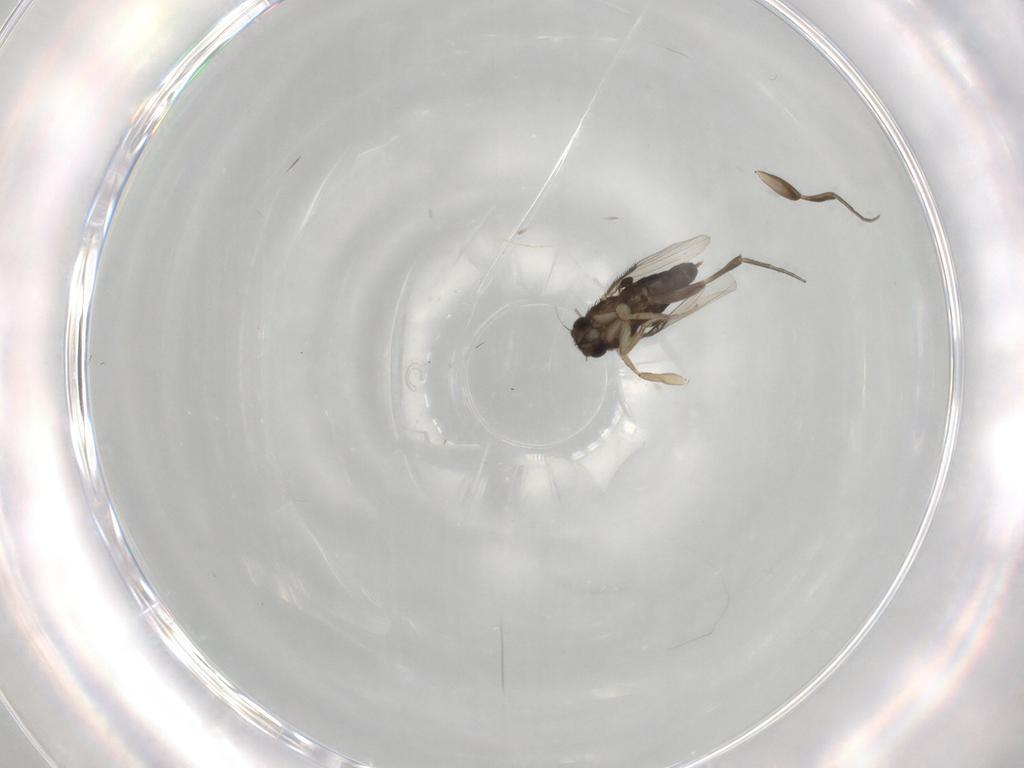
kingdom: Animalia
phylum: Arthropoda
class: Insecta
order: Diptera
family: Phoridae
